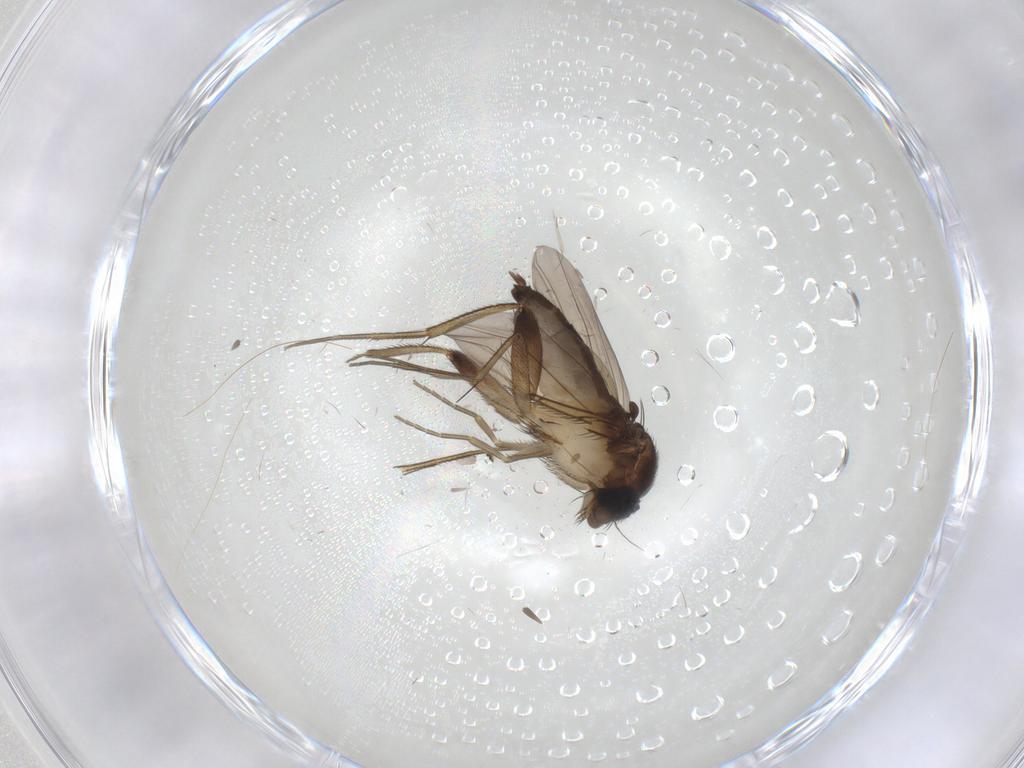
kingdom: Animalia
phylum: Arthropoda
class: Insecta
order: Diptera
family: Phoridae
